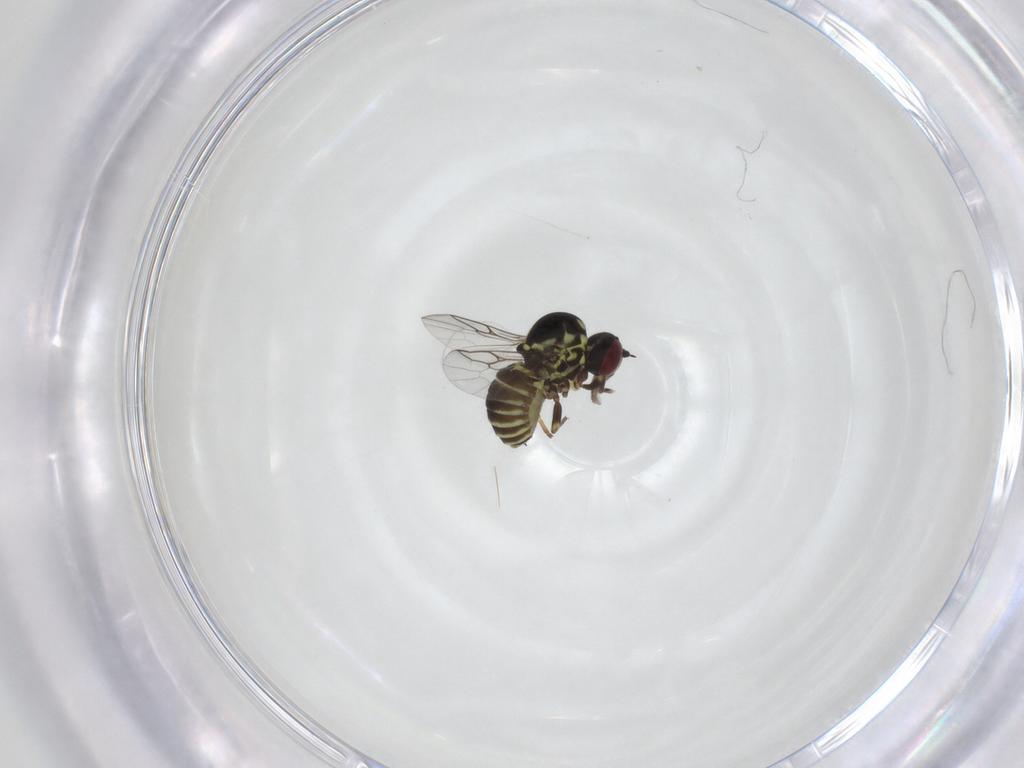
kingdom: Animalia
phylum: Arthropoda
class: Insecta
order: Diptera
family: Mythicomyiidae
